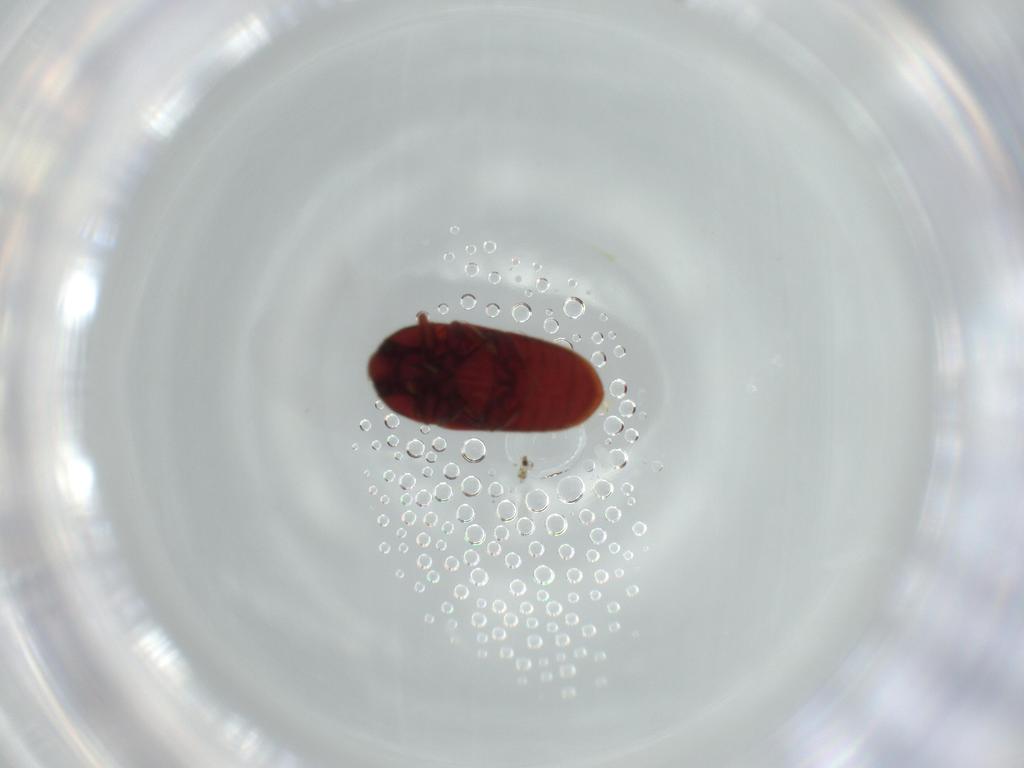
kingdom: Animalia
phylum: Arthropoda
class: Insecta
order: Coleoptera
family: Throscidae
